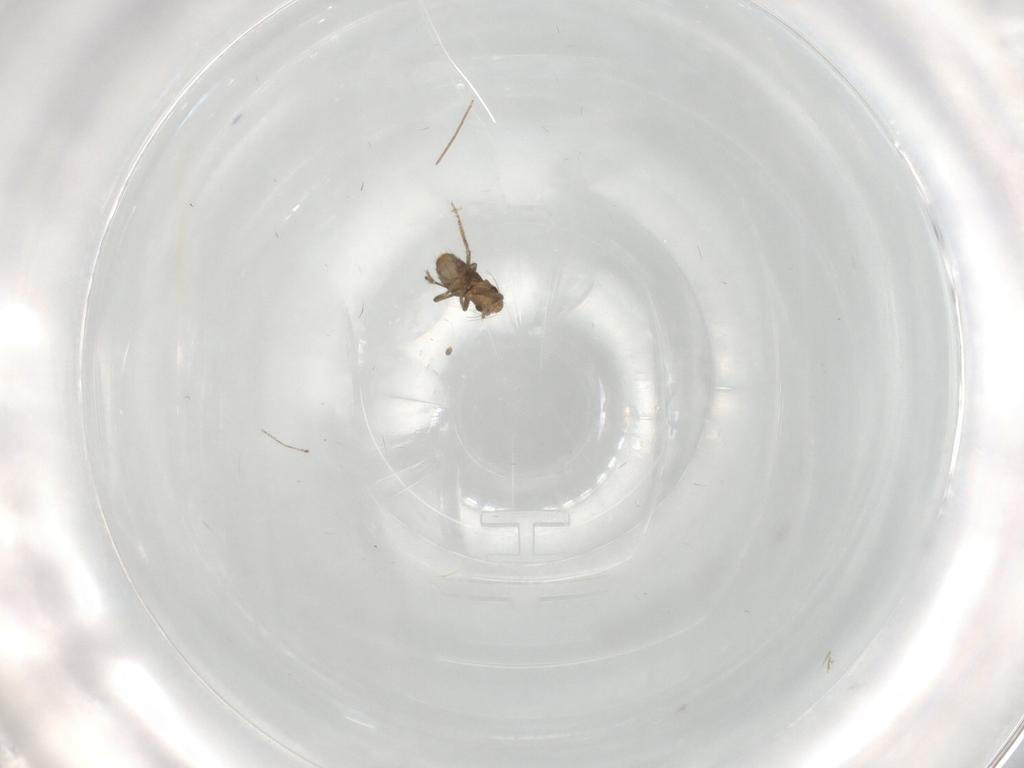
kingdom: Animalia
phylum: Arthropoda
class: Insecta
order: Diptera
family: Chironomidae
